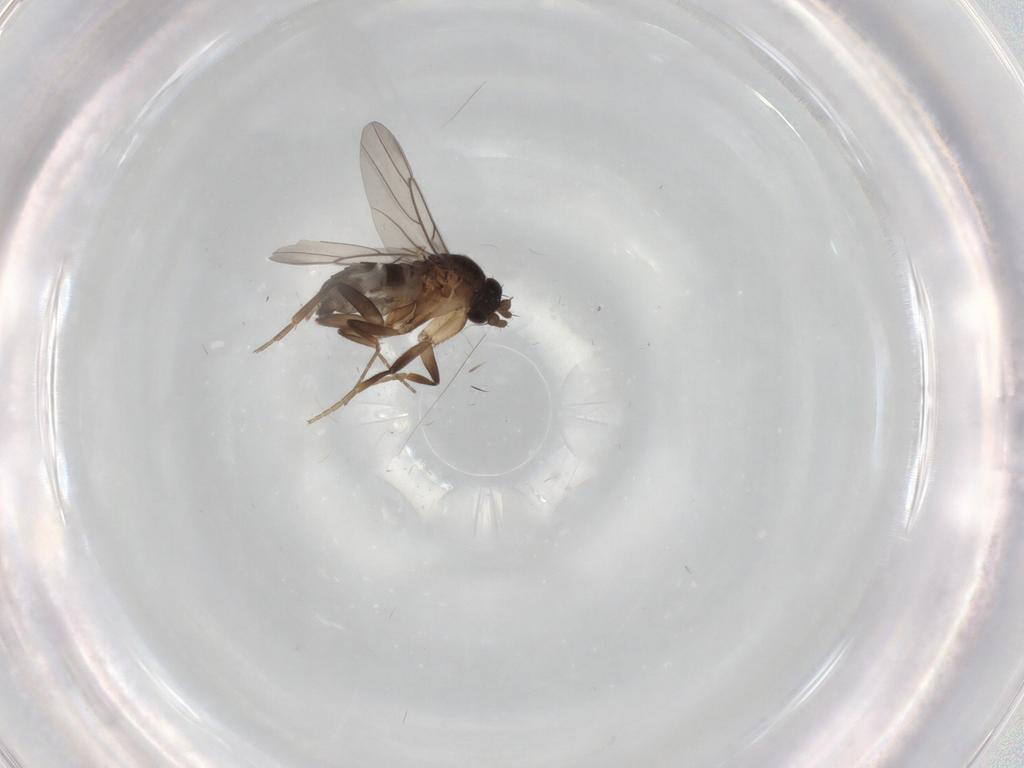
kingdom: Animalia
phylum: Arthropoda
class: Insecta
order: Diptera
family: Phoridae
